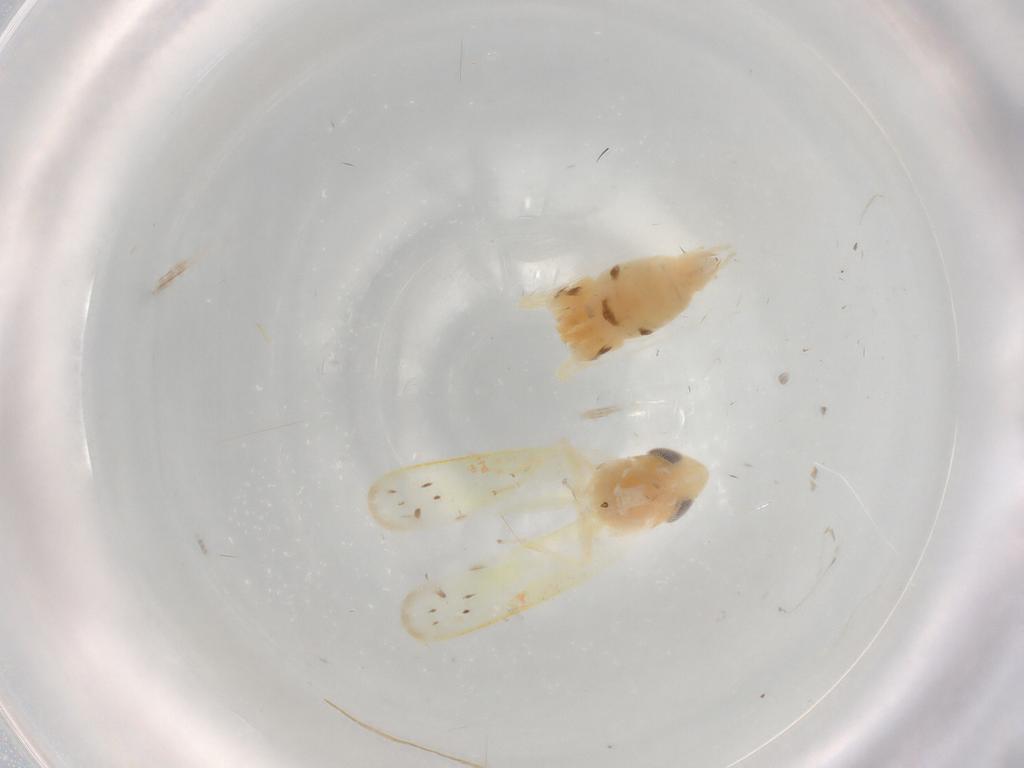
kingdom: Animalia
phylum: Arthropoda
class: Insecta
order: Hemiptera
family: Cicadellidae
